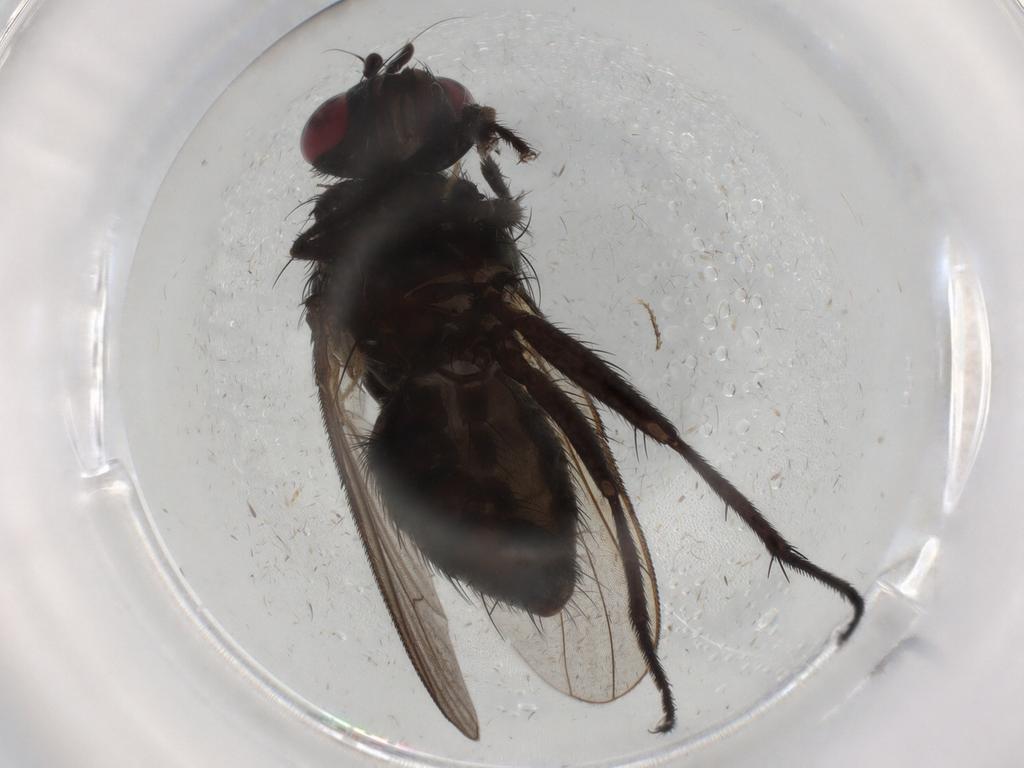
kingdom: Animalia
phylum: Arthropoda
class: Insecta
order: Diptera
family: Muscidae
